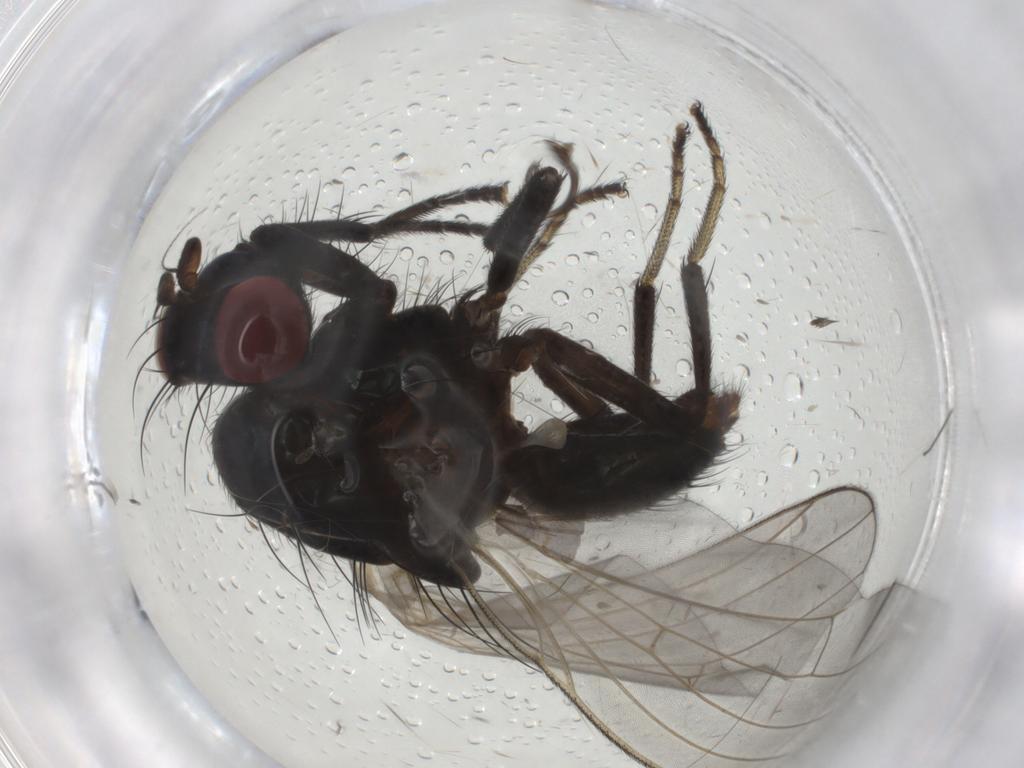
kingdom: Animalia
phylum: Arthropoda
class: Insecta
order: Diptera
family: Lauxaniidae
